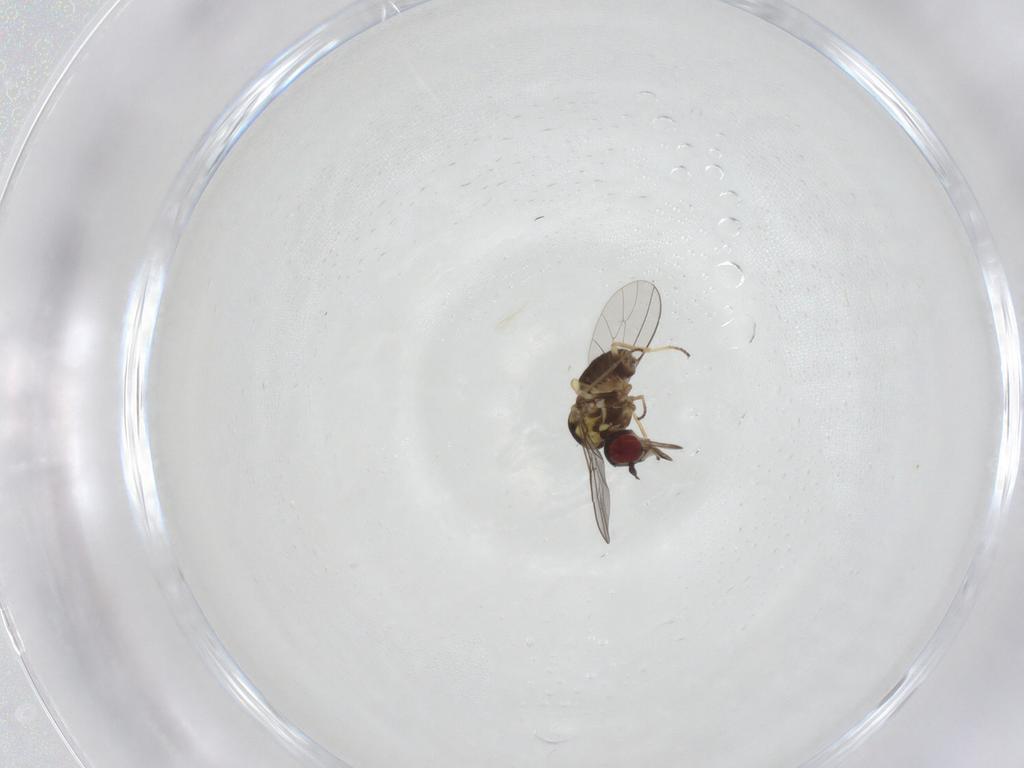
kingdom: Animalia
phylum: Arthropoda
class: Insecta
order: Diptera
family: Bombyliidae
